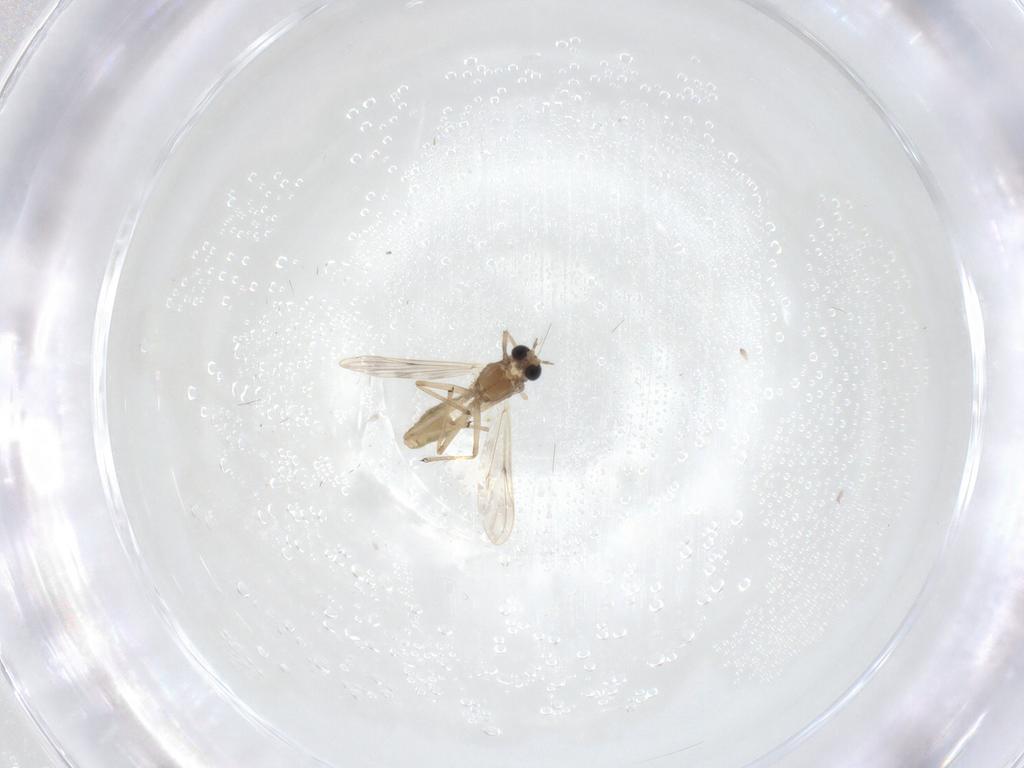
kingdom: Animalia
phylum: Arthropoda
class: Insecta
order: Diptera
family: Chironomidae
